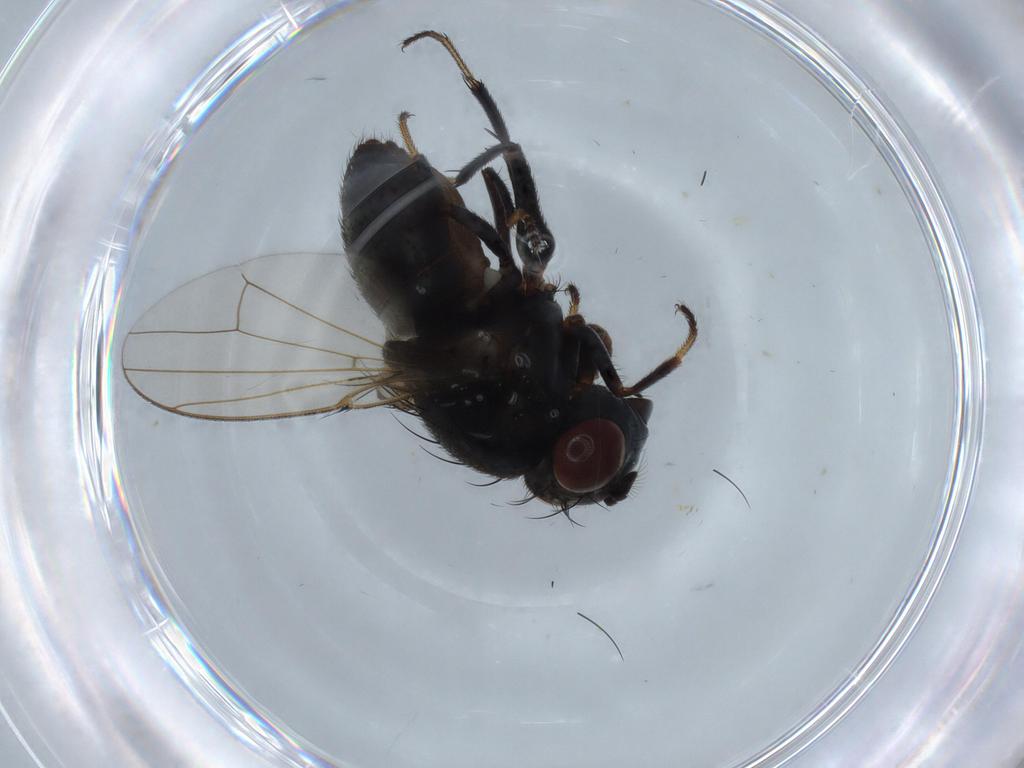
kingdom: Animalia
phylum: Arthropoda
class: Insecta
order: Diptera
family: Ephydridae
